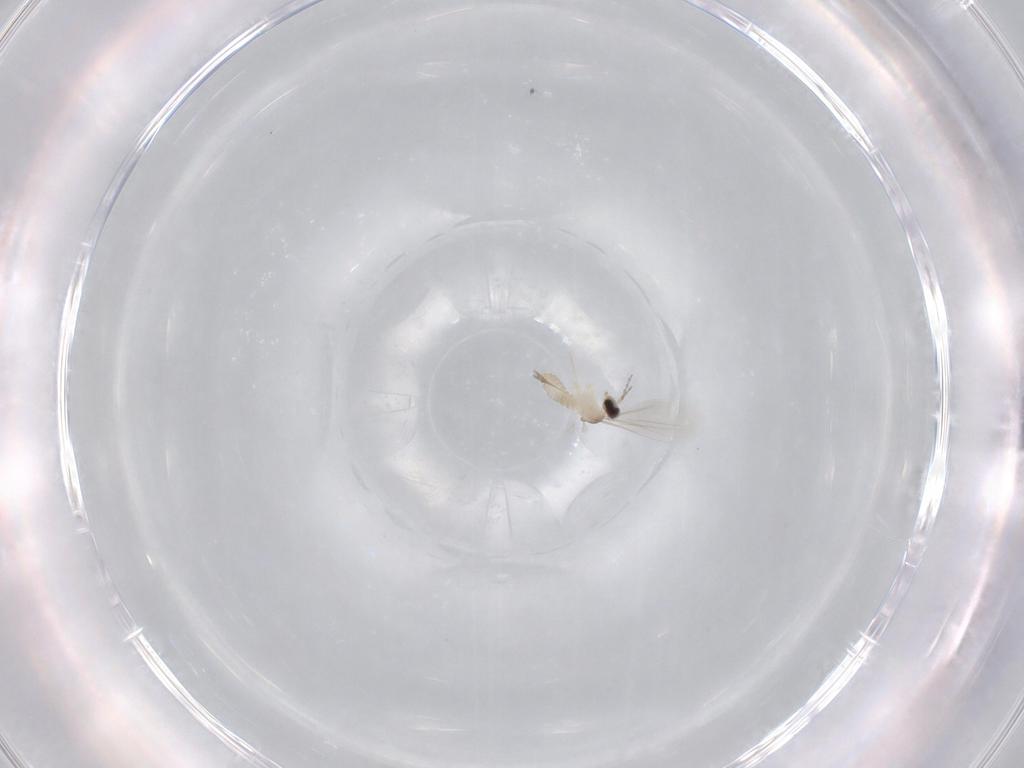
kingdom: Animalia
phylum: Arthropoda
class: Insecta
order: Diptera
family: Cecidomyiidae
